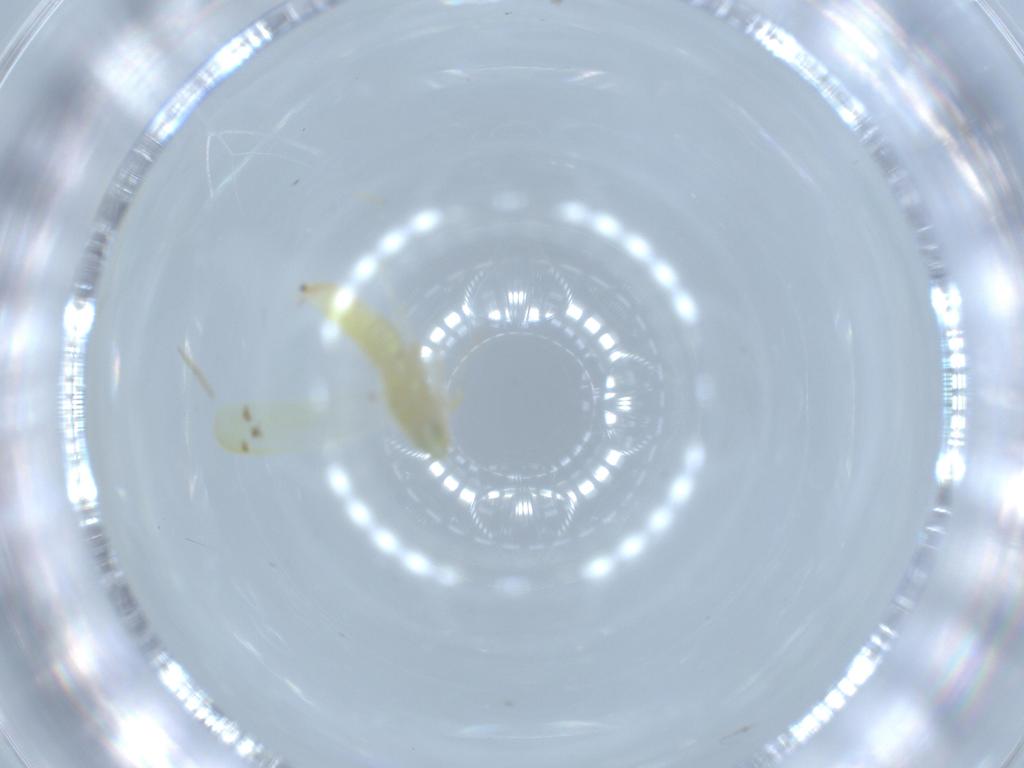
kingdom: Animalia
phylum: Arthropoda
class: Insecta
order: Hemiptera
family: Cicadellidae
